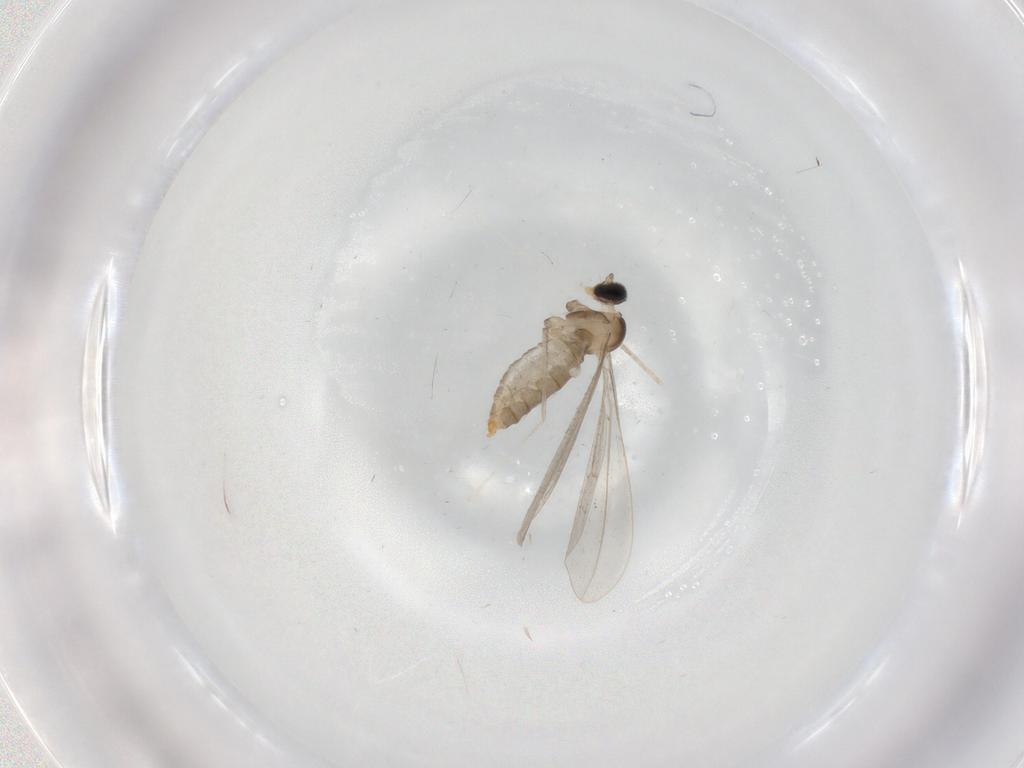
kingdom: Animalia
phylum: Arthropoda
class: Insecta
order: Diptera
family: Cecidomyiidae
